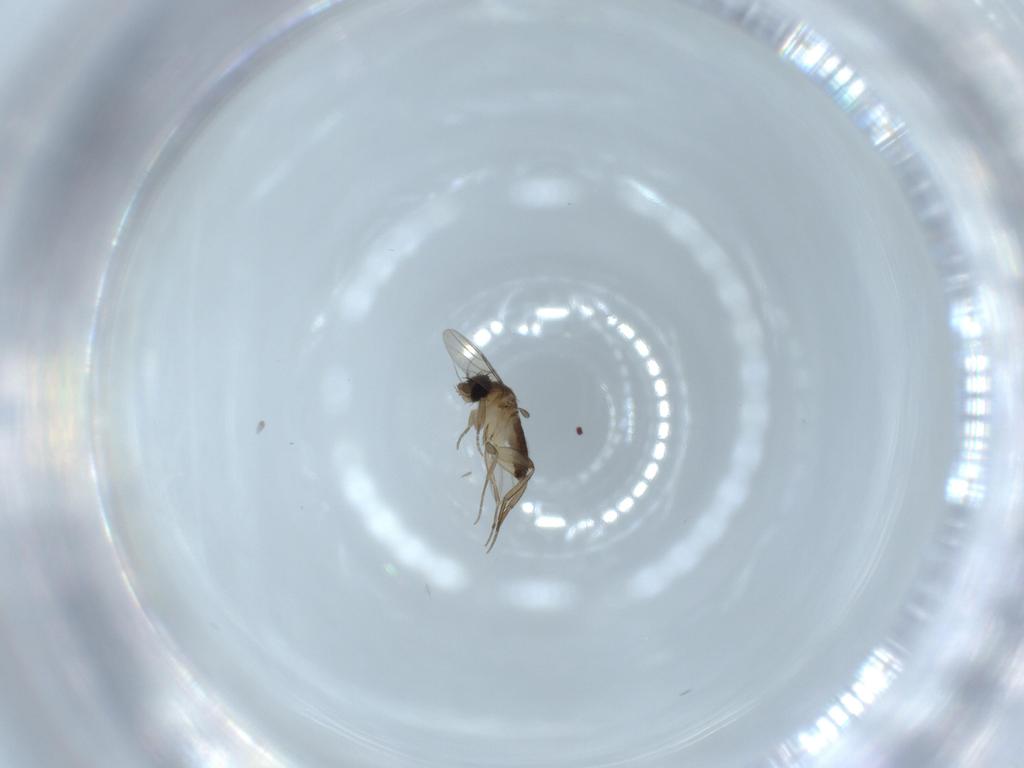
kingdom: Animalia
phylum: Arthropoda
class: Insecta
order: Diptera
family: Phoridae
